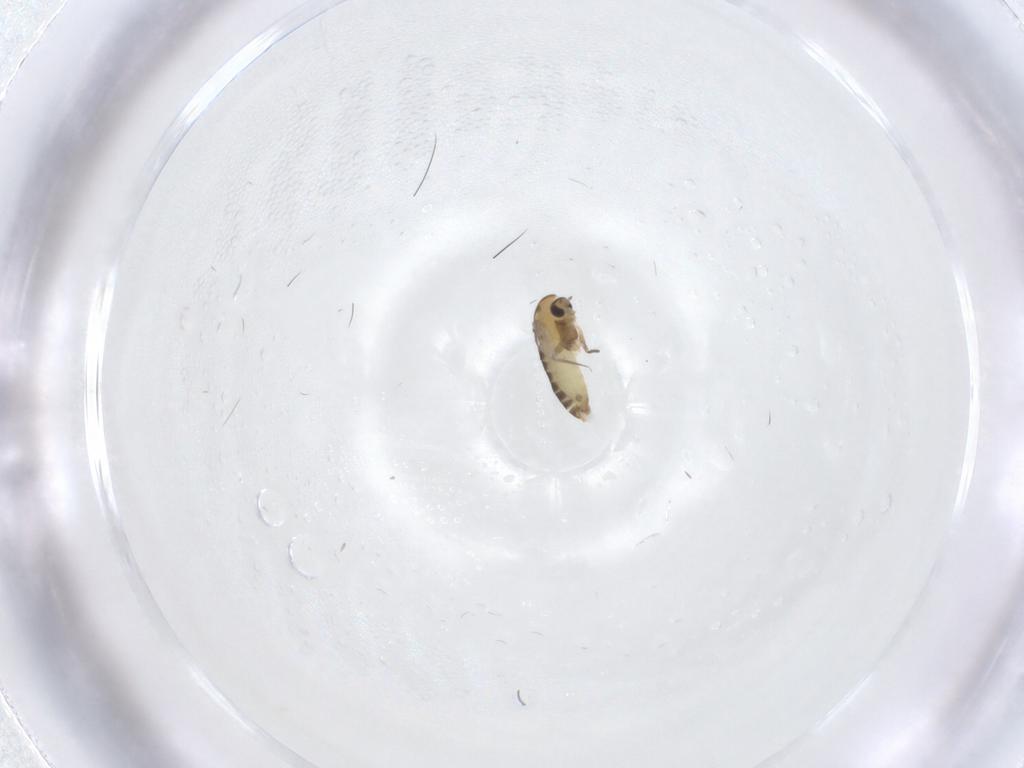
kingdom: Animalia
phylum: Arthropoda
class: Insecta
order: Diptera
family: Chironomidae
